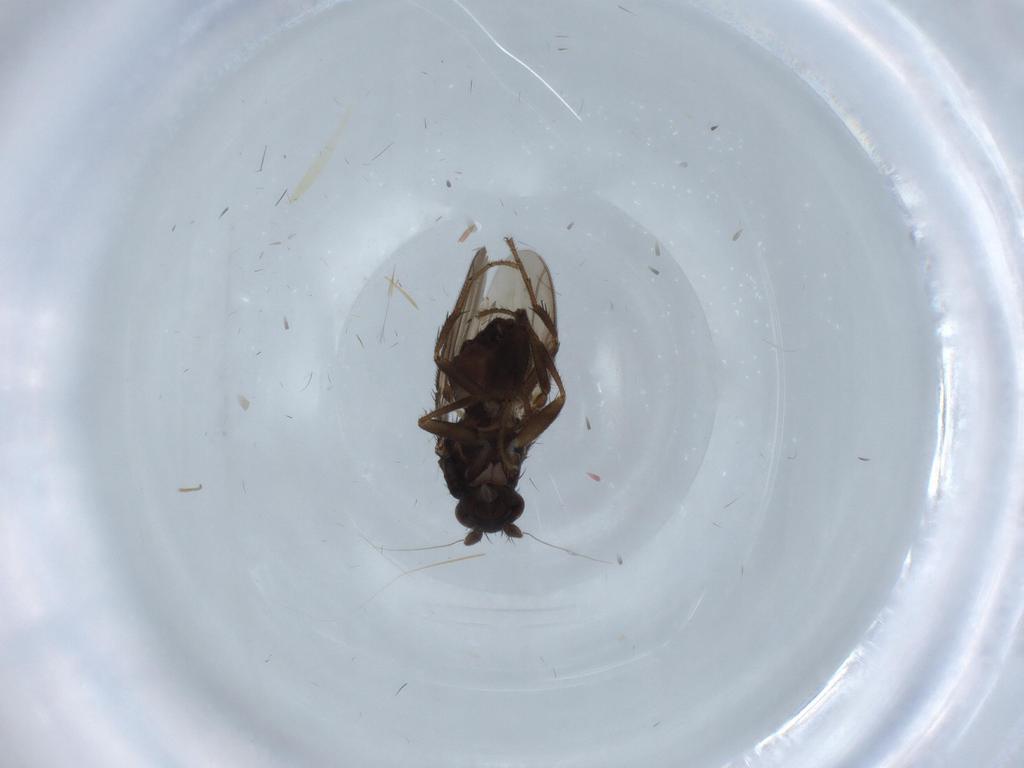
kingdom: Animalia
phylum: Arthropoda
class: Insecta
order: Diptera
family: Sphaeroceridae
